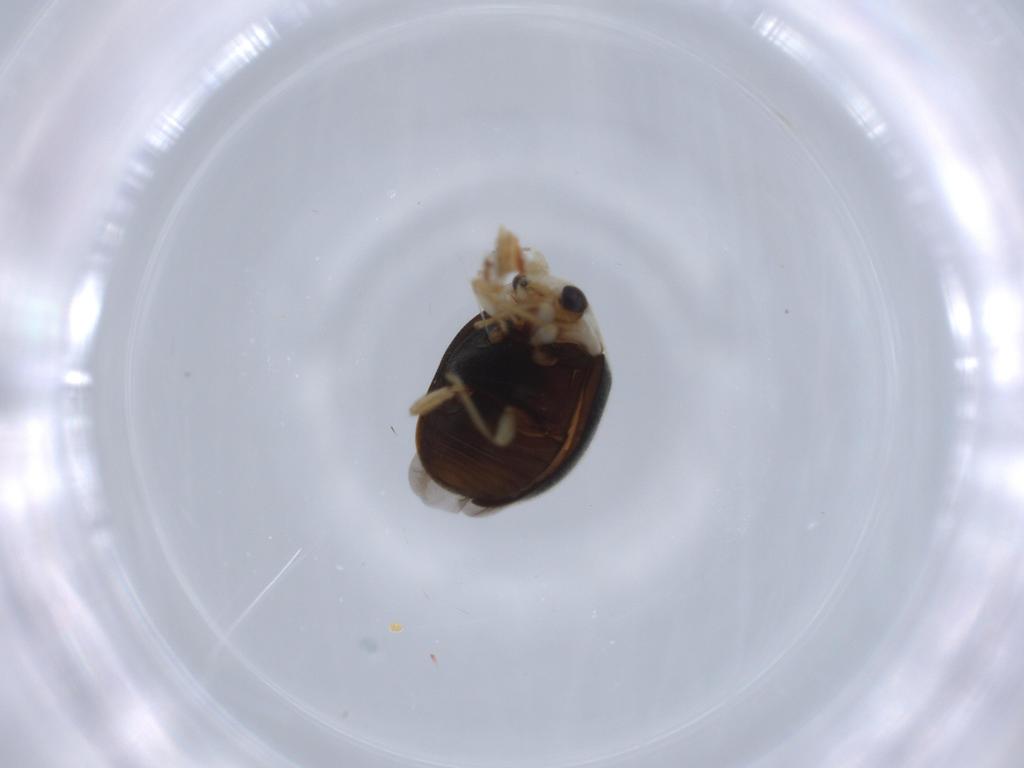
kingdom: Animalia
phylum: Arthropoda
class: Insecta
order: Coleoptera
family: Coccinellidae
